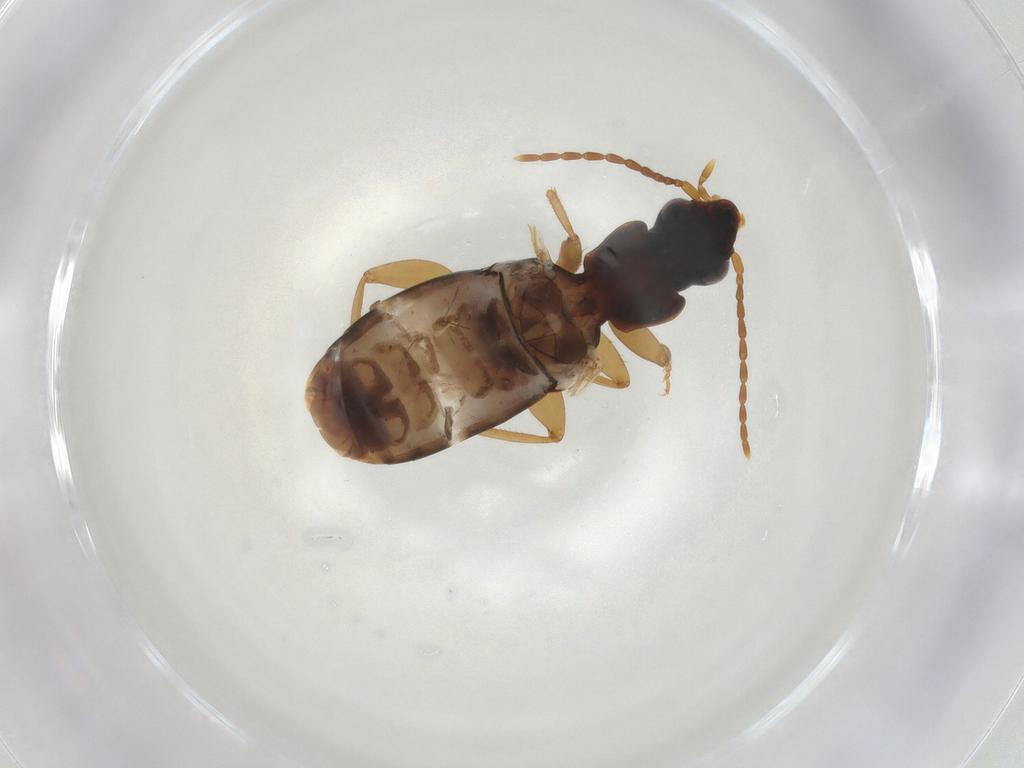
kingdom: Animalia
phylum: Arthropoda
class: Insecta
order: Coleoptera
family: Carabidae
